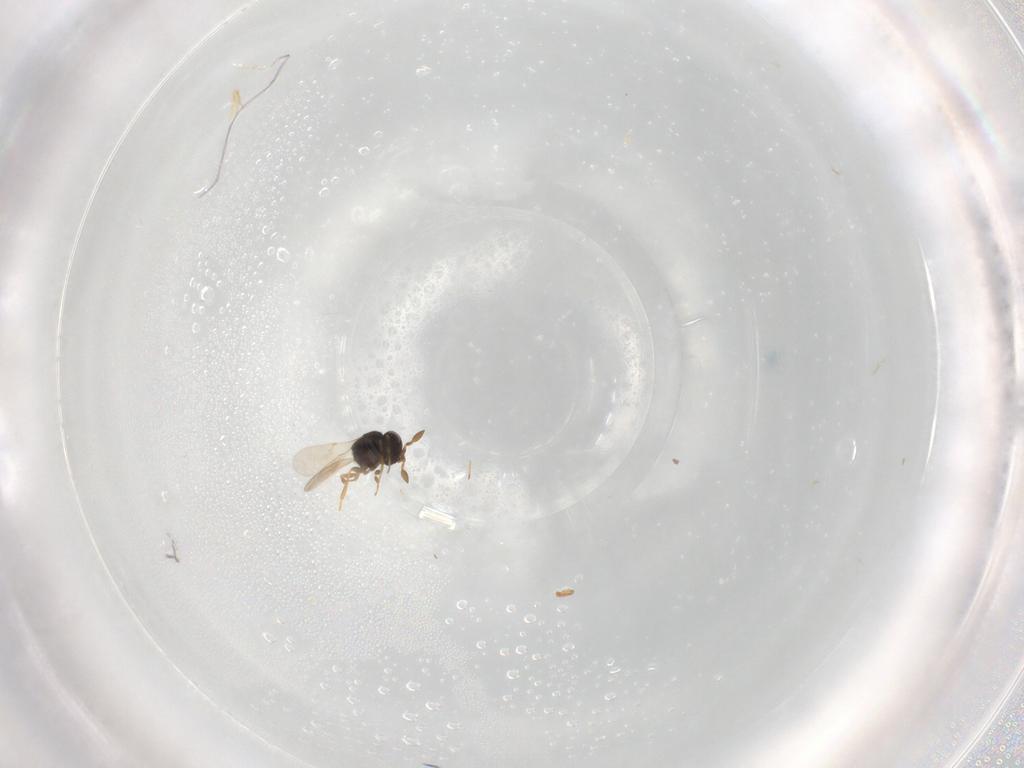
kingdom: Animalia
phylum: Arthropoda
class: Insecta
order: Hymenoptera
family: Scelionidae
